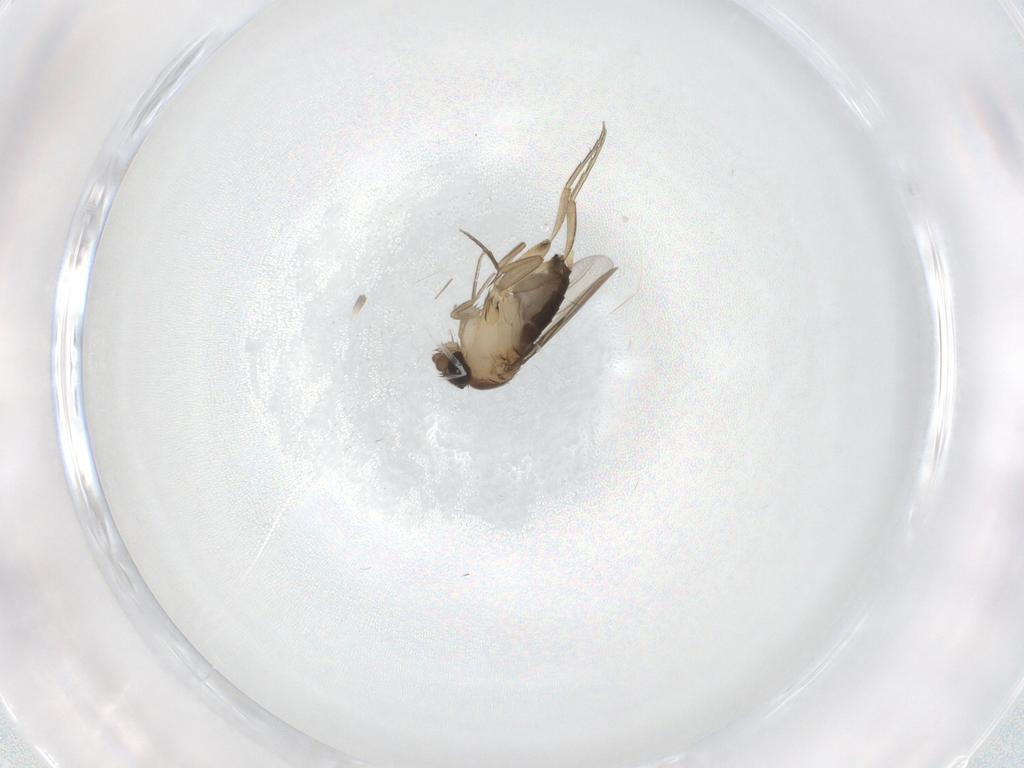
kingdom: Animalia
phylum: Arthropoda
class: Insecta
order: Diptera
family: Phoridae
